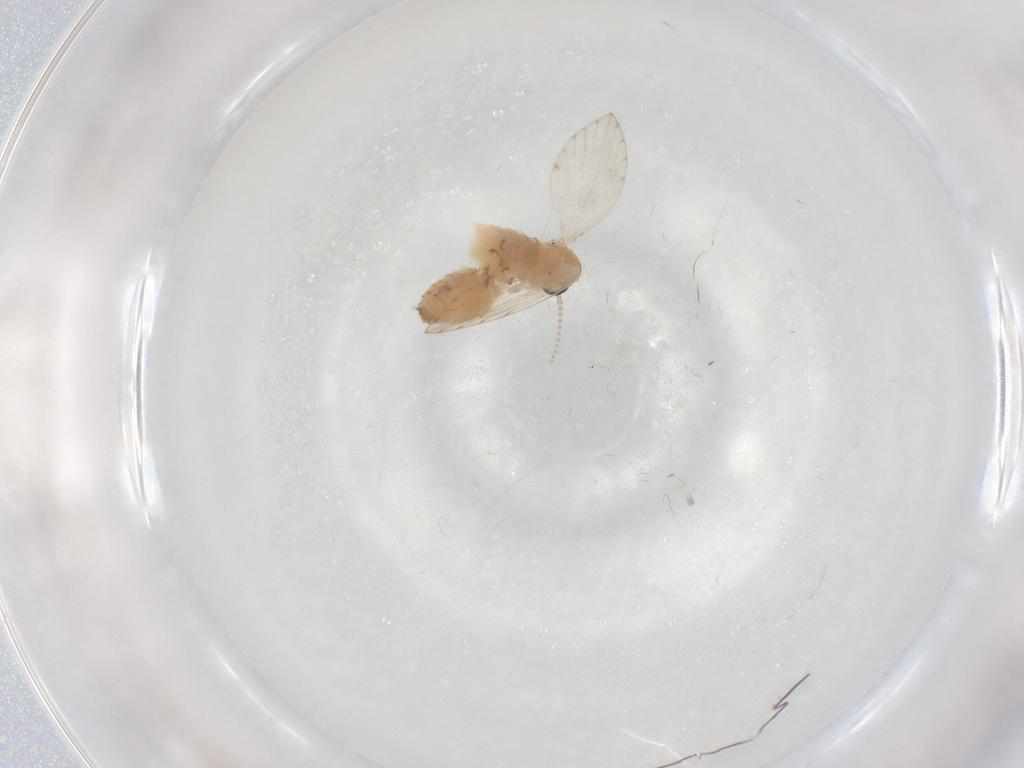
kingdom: Animalia
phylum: Arthropoda
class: Insecta
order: Diptera
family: Psychodidae
